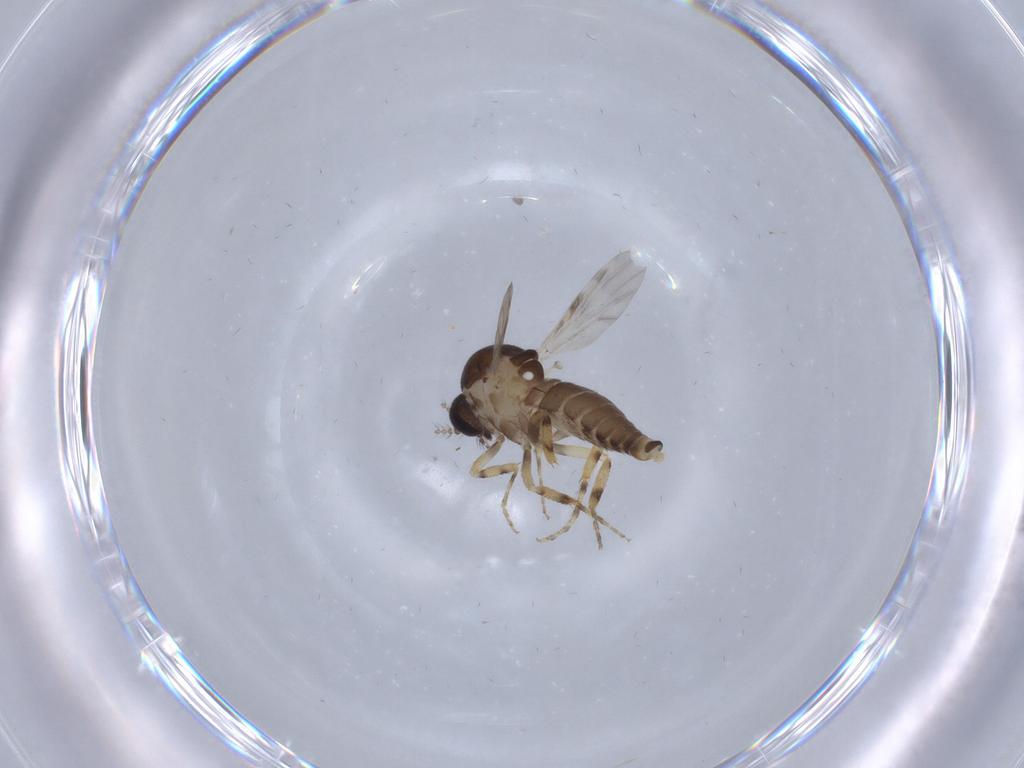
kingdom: Animalia
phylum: Arthropoda
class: Insecta
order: Diptera
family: Ceratopogonidae
